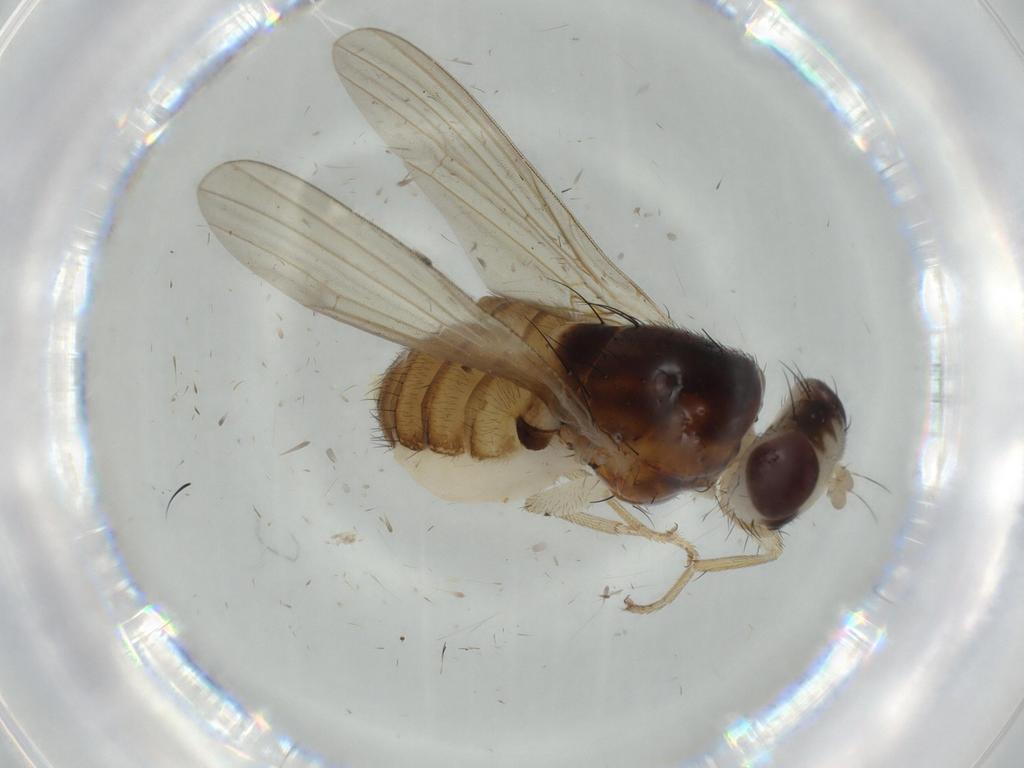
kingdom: Animalia
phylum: Arthropoda
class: Insecta
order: Diptera
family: Lauxaniidae
